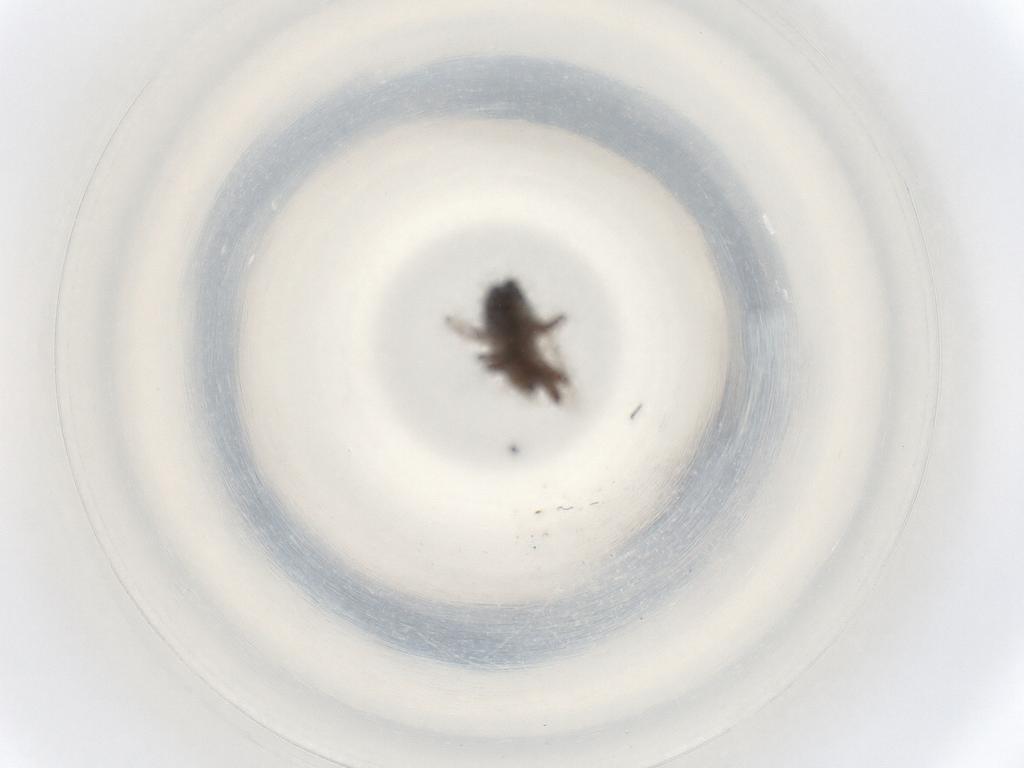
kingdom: Animalia
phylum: Arthropoda
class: Insecta
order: Diptera
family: Sphaeroceridae
